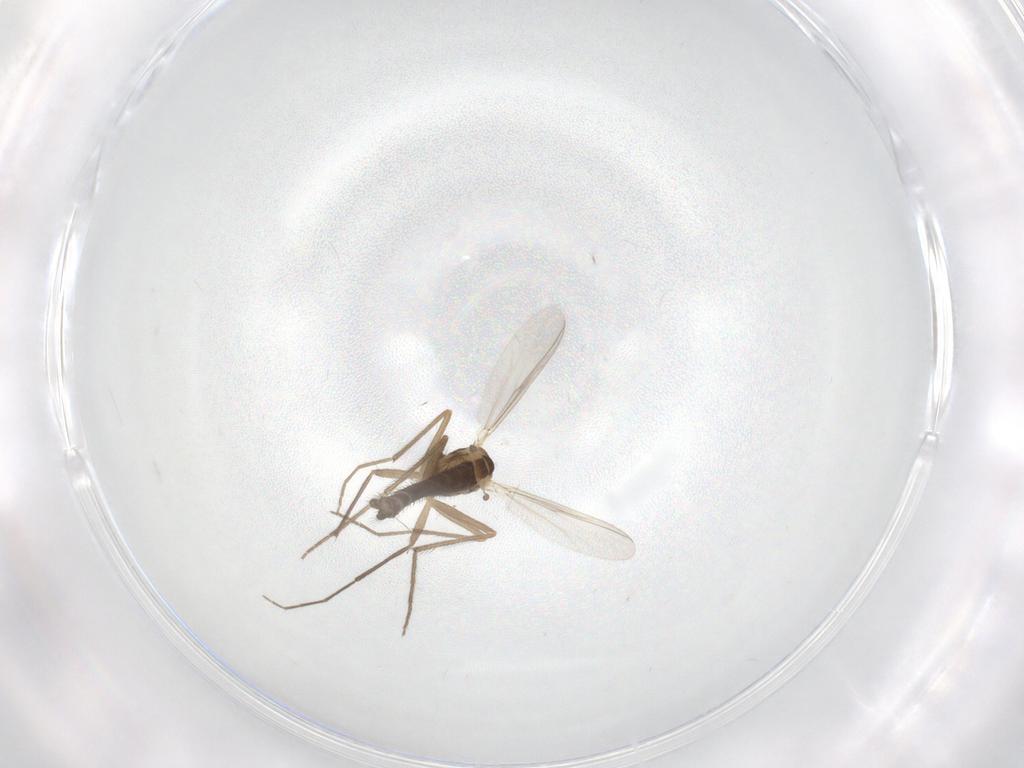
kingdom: Animalia
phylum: Arthropoda
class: Insecta
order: Diptera
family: Chironomidae
